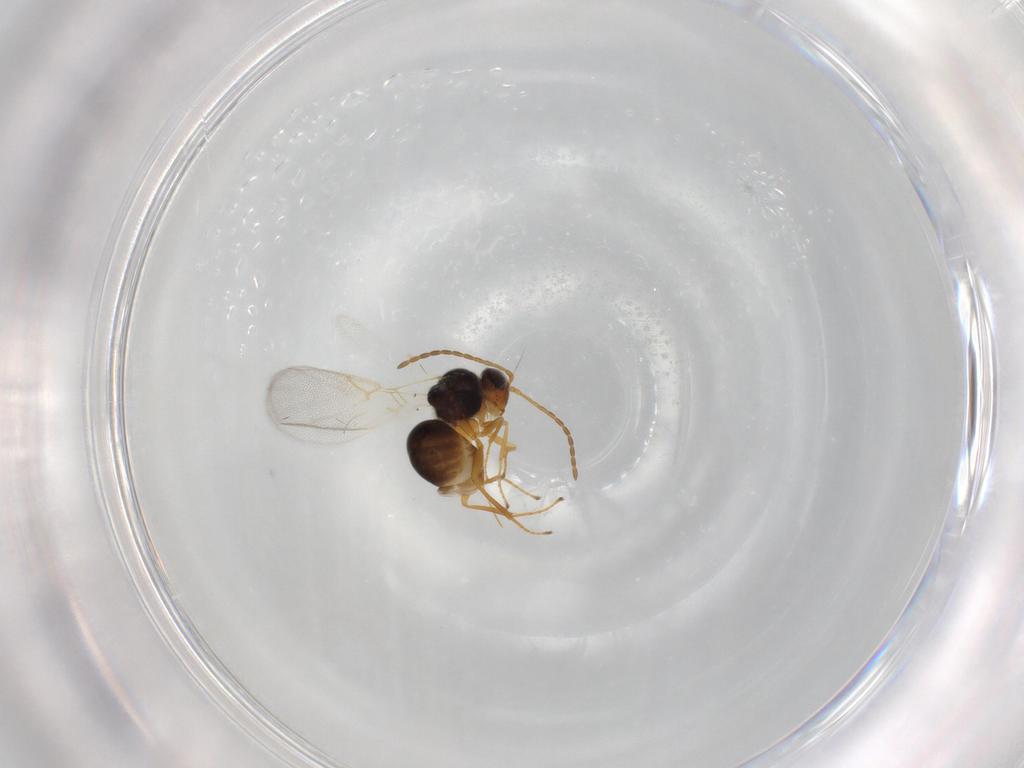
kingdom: Animalia
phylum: Arthropoda
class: Insecta
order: Hymenoptera
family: Figitidae
